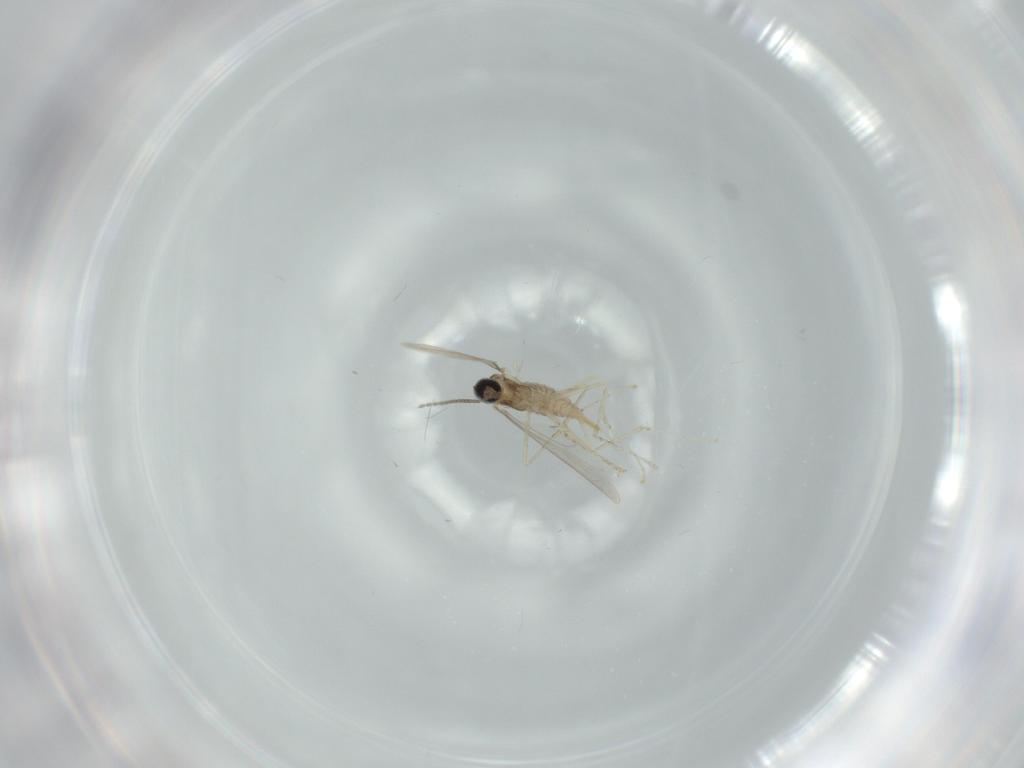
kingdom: Animalia
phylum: Arthropoda
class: Insecta
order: Diptera
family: Cecidomyiidae
